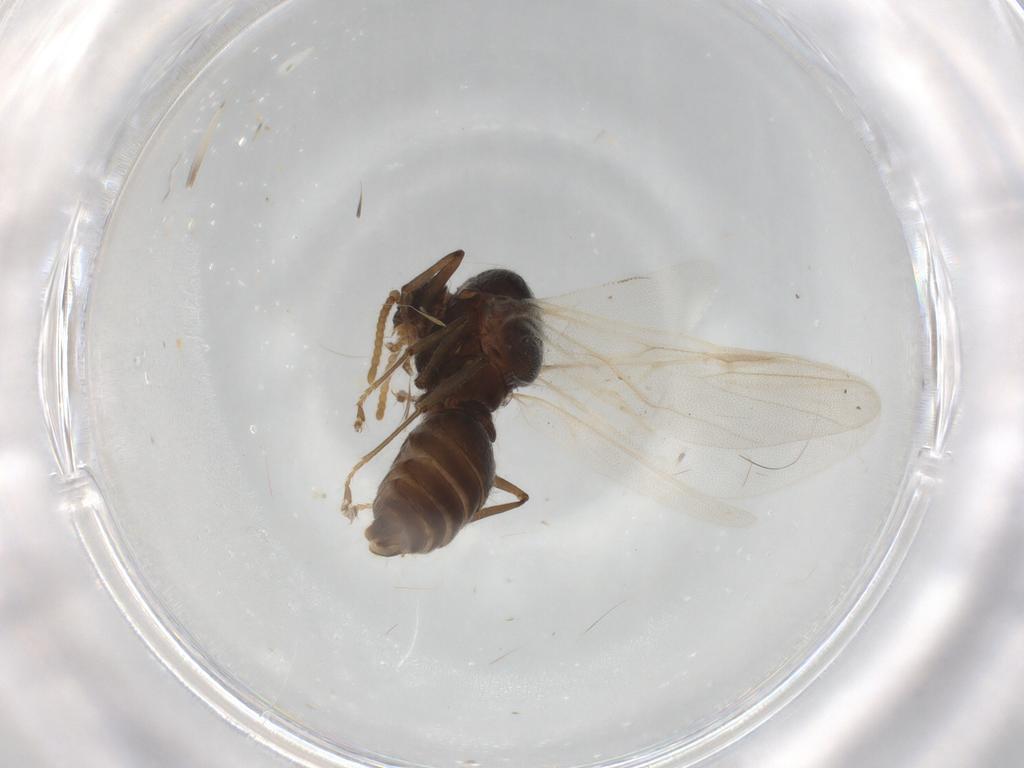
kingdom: Animalia
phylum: Arthropoda
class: Insecta
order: Hymenoptera
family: Formicidae
